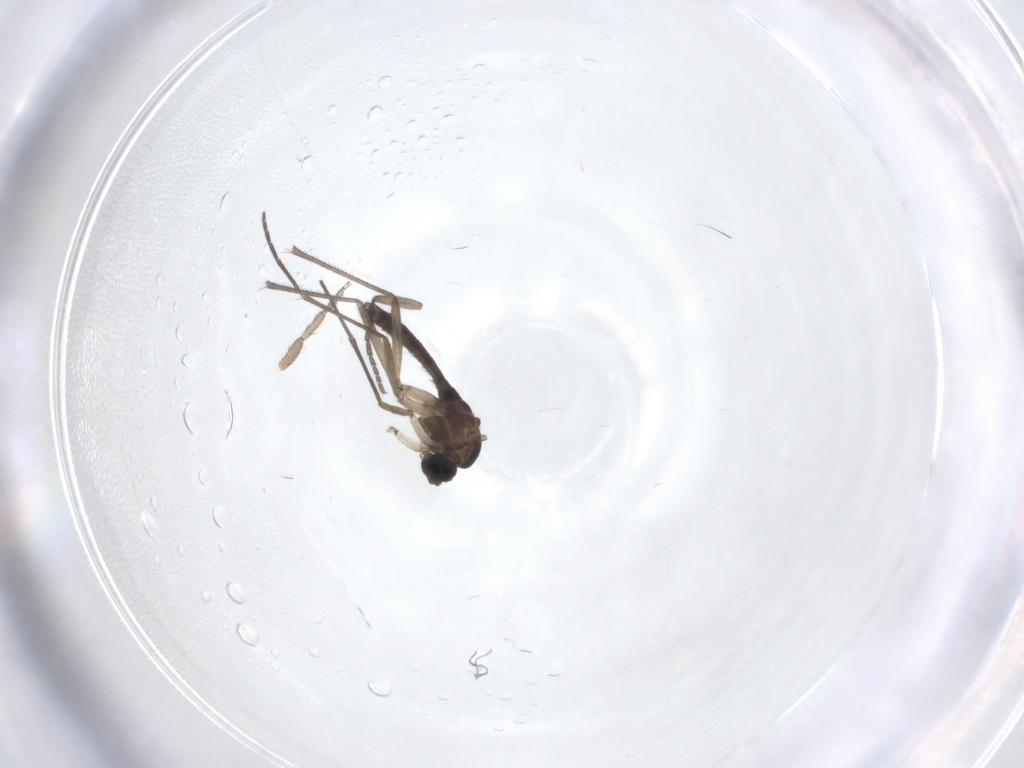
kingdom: Animalia
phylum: Arthropoda
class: Insecta
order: Diptera
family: Sciaridae
